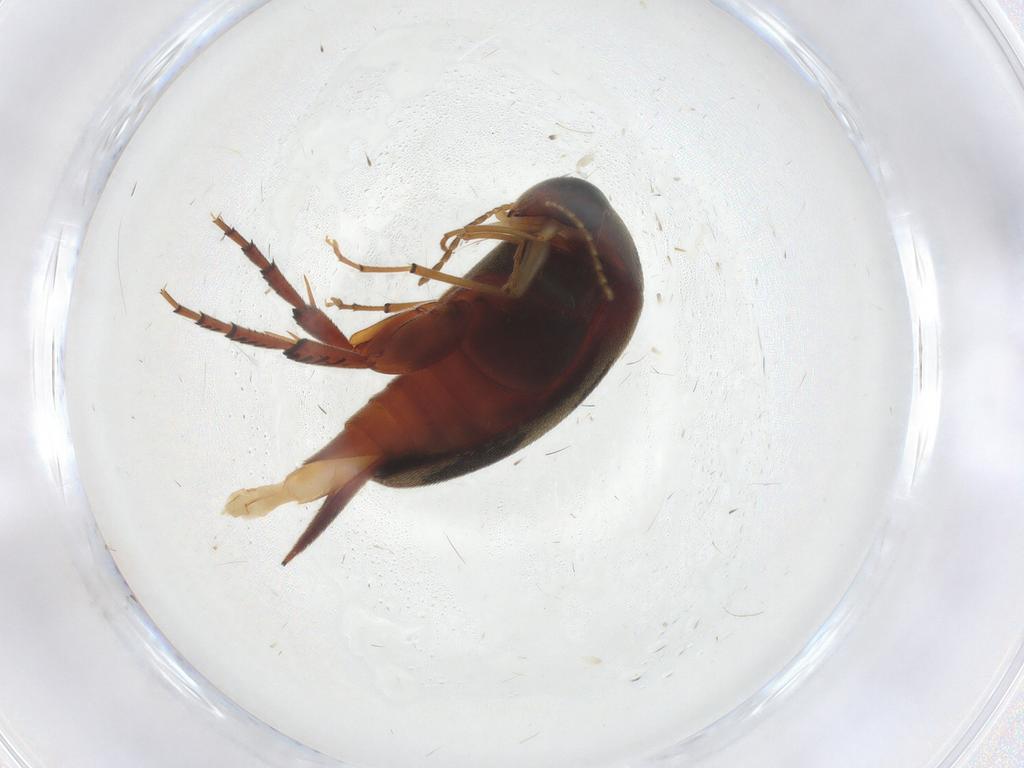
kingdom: Animalia
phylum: Arthropoda
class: Insecta
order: Coleoptera
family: Mordellidae
